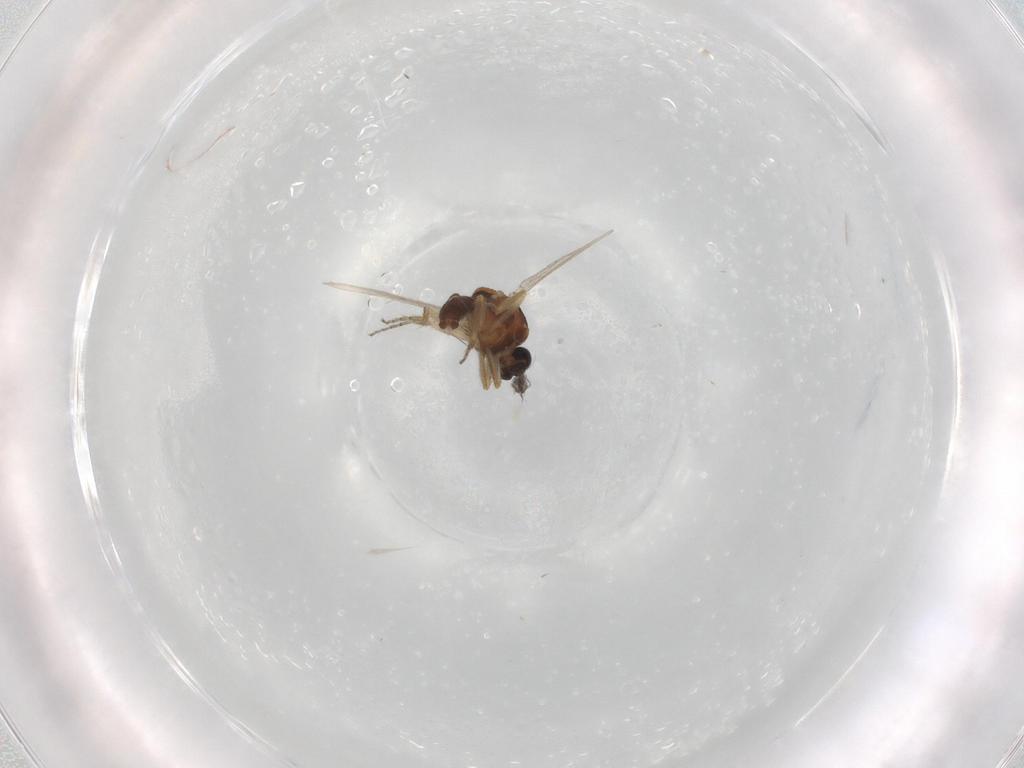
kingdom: Animalia
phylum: Arthropoda
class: Insecta
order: Diptera
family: Ceratopogonidae
